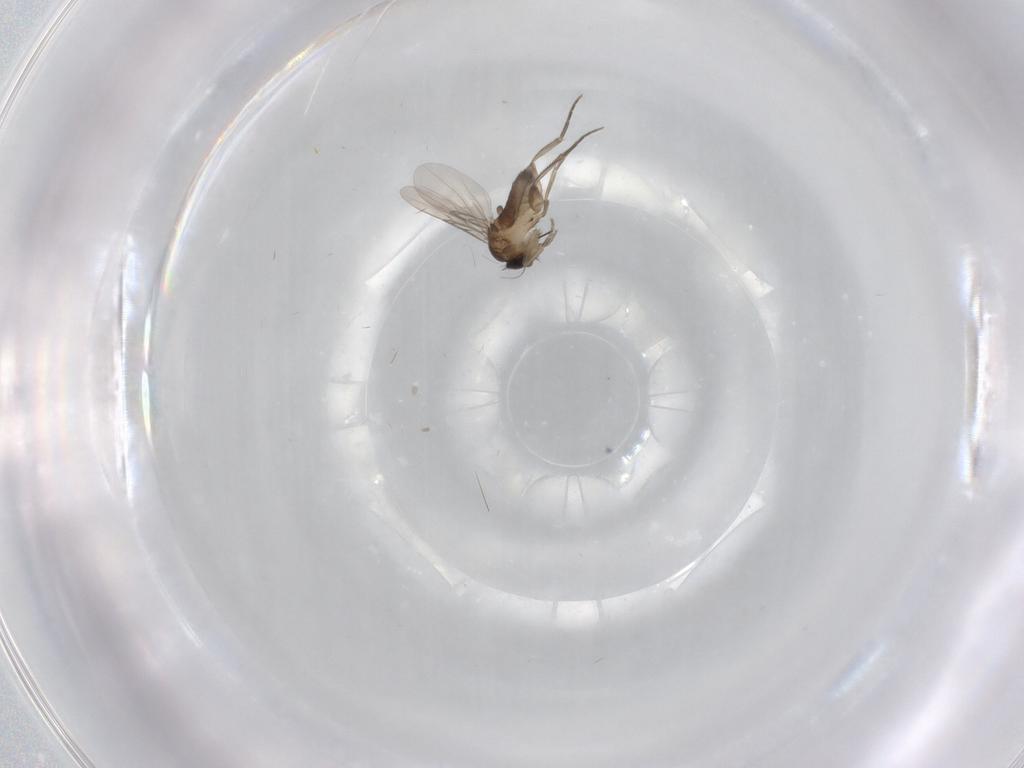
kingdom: Animalia
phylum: Arthropoda
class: Insecta
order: Diptera
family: Phoridae
